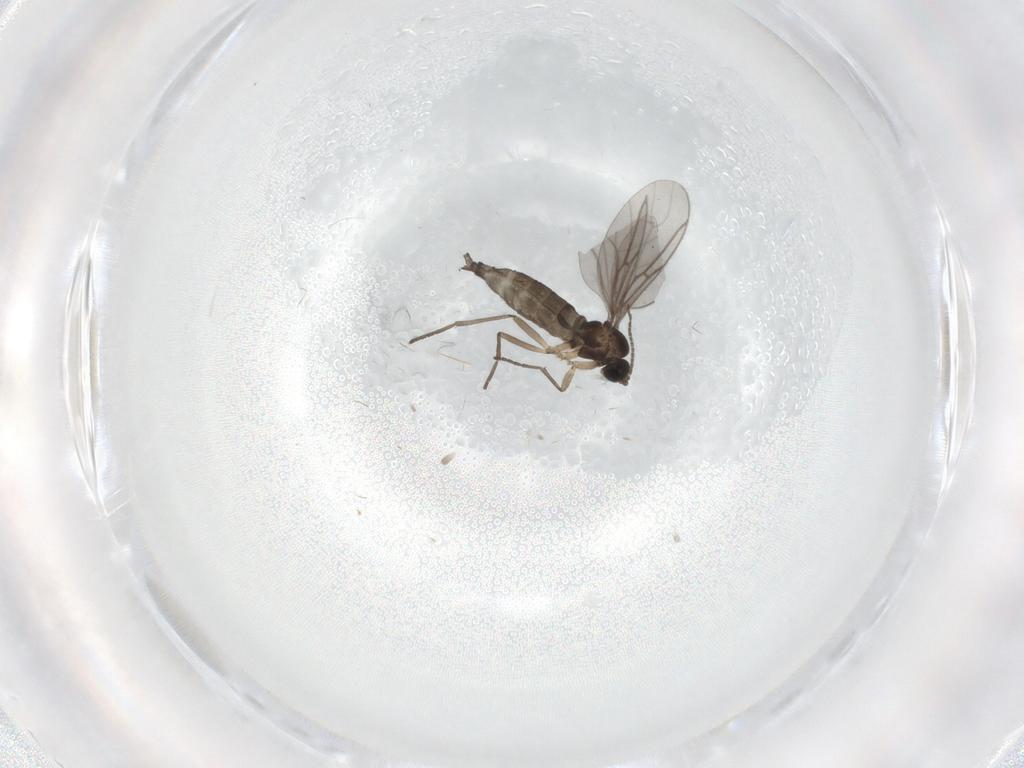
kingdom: Animalia
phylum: Arthropoda
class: Insecta
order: Diptera
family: Sciaridae
